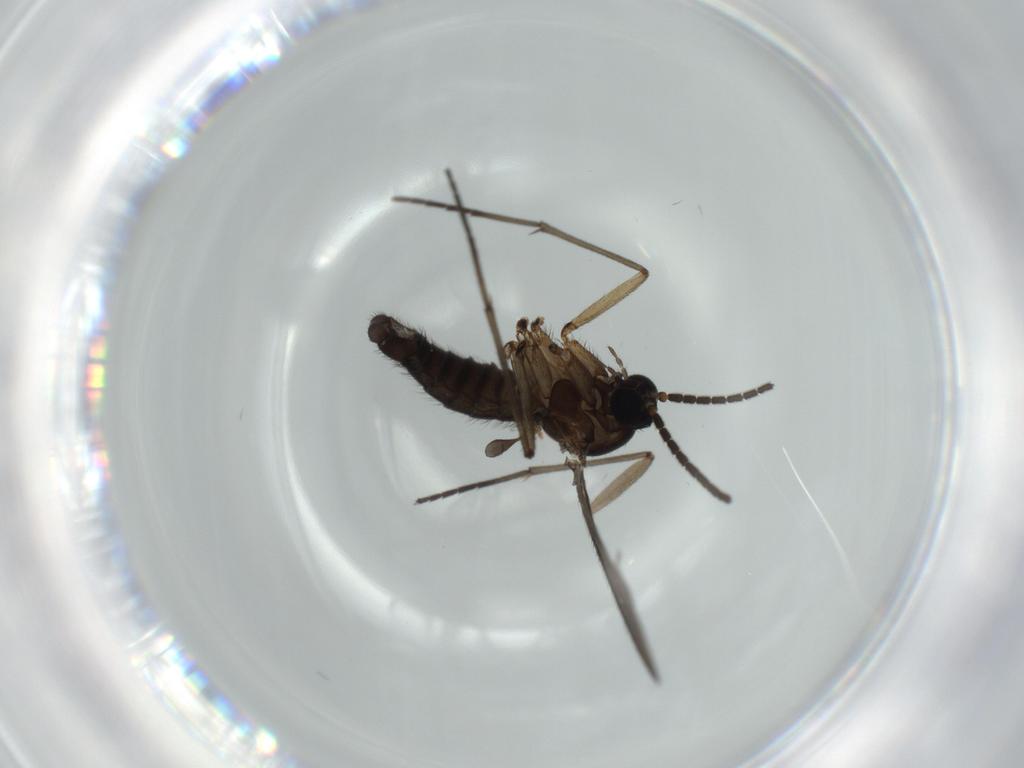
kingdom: Animalia
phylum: Arthropoda
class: Insecta
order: Diptera
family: Sciaridae
